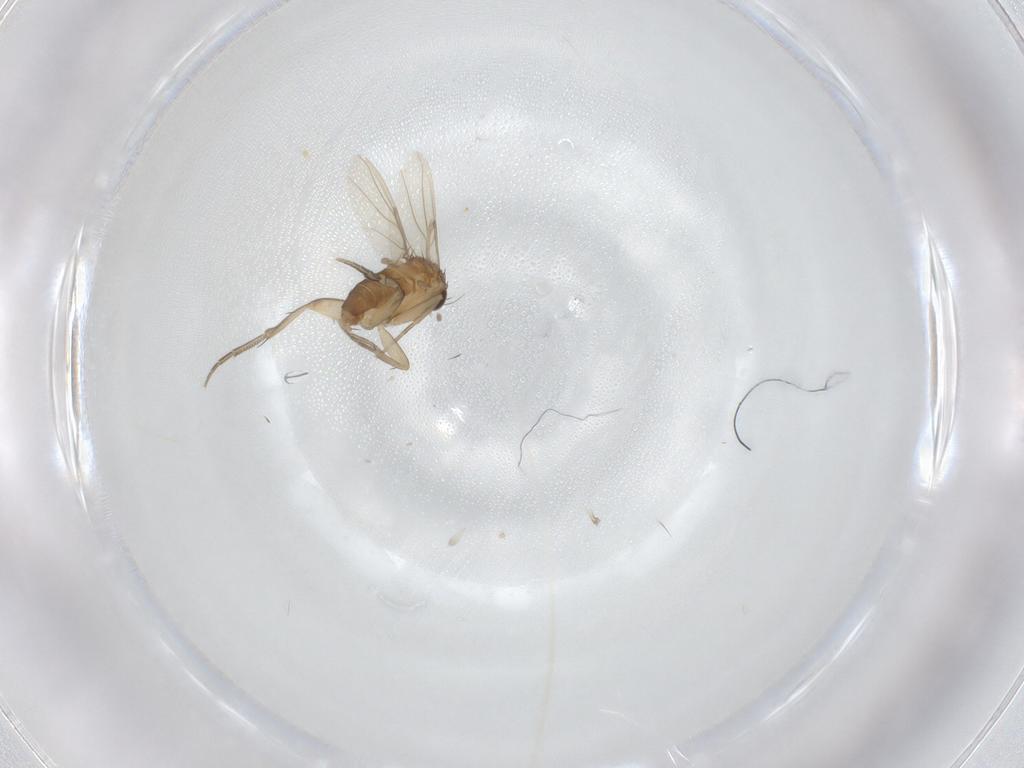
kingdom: Animalia
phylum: Arthropoda
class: Insecta
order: Diptera
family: Phoridae
